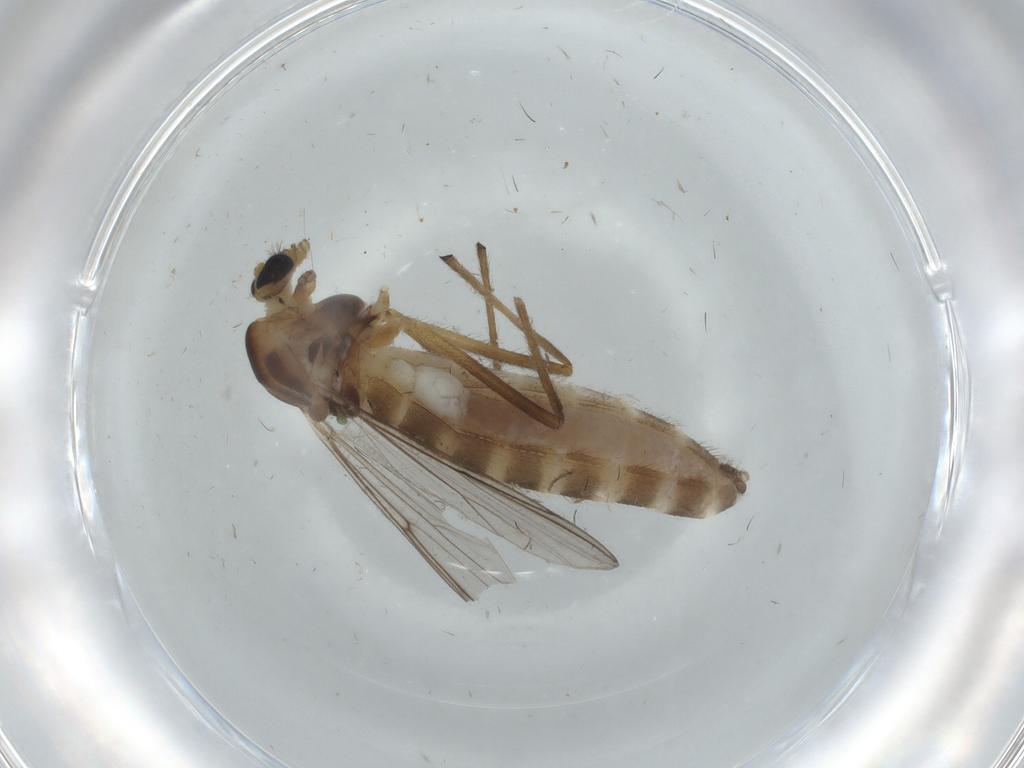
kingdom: Animalia
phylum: Arthropoda
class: Insecta
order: Diptera
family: Chironomidae
